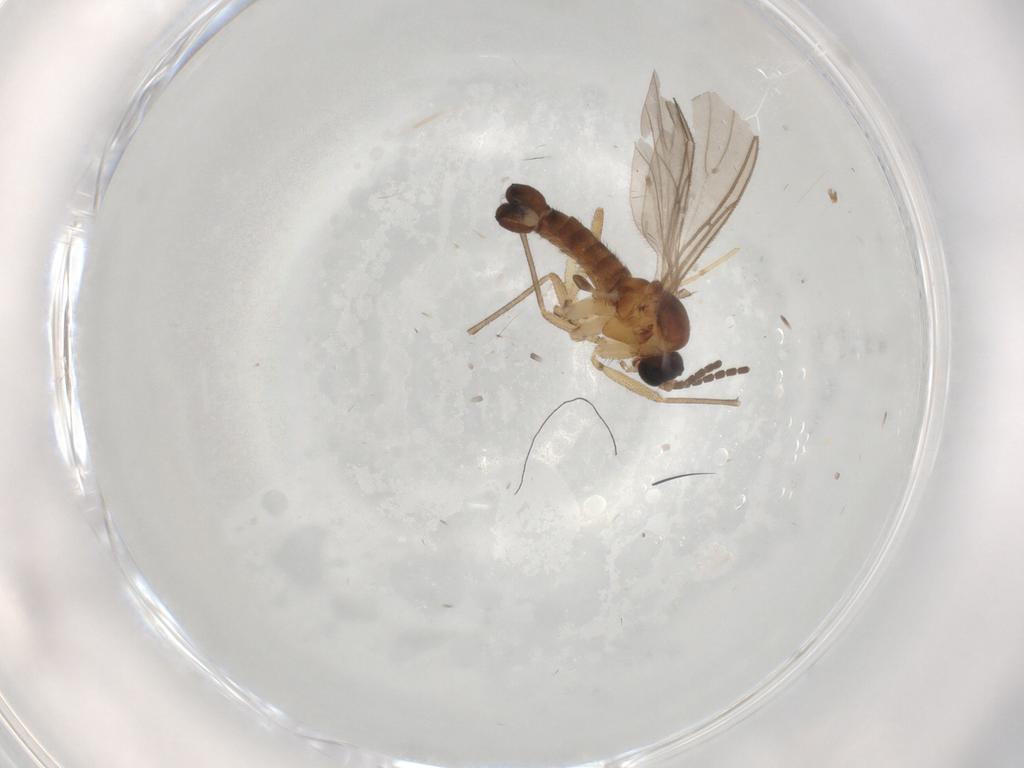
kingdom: Animalia
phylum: Arthropoda
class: Insecta
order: Diptera
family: Sciaridae
